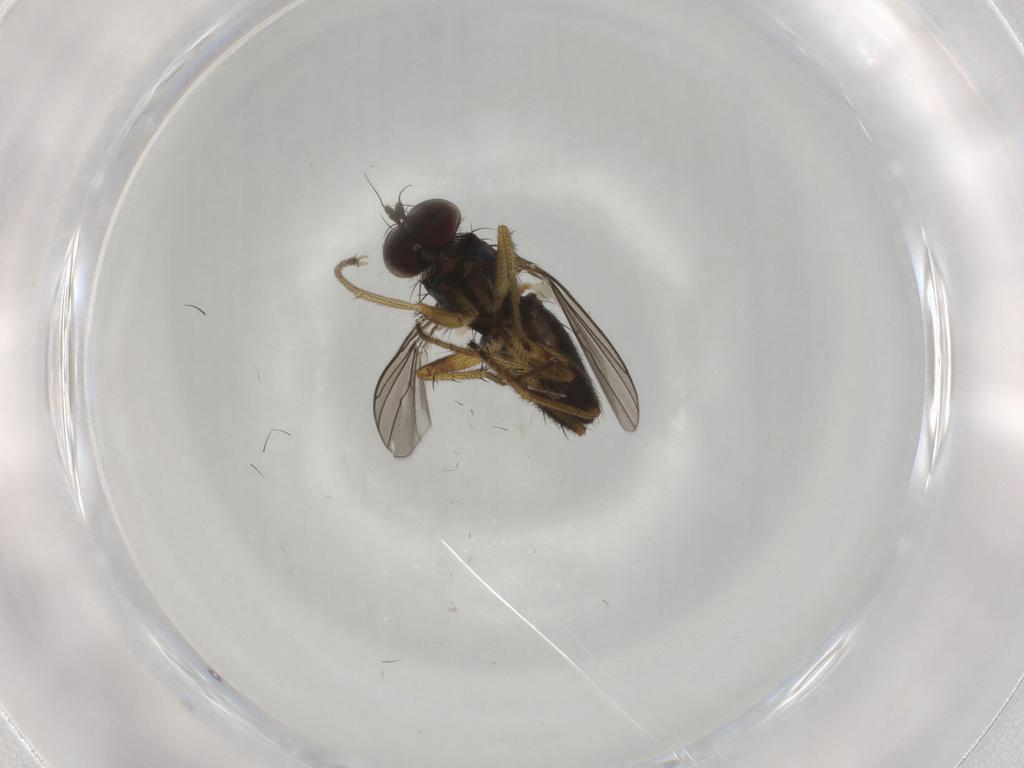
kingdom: Animalia
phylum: Arthropoda
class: Insecta
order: Diptera
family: Dolichopodidae
